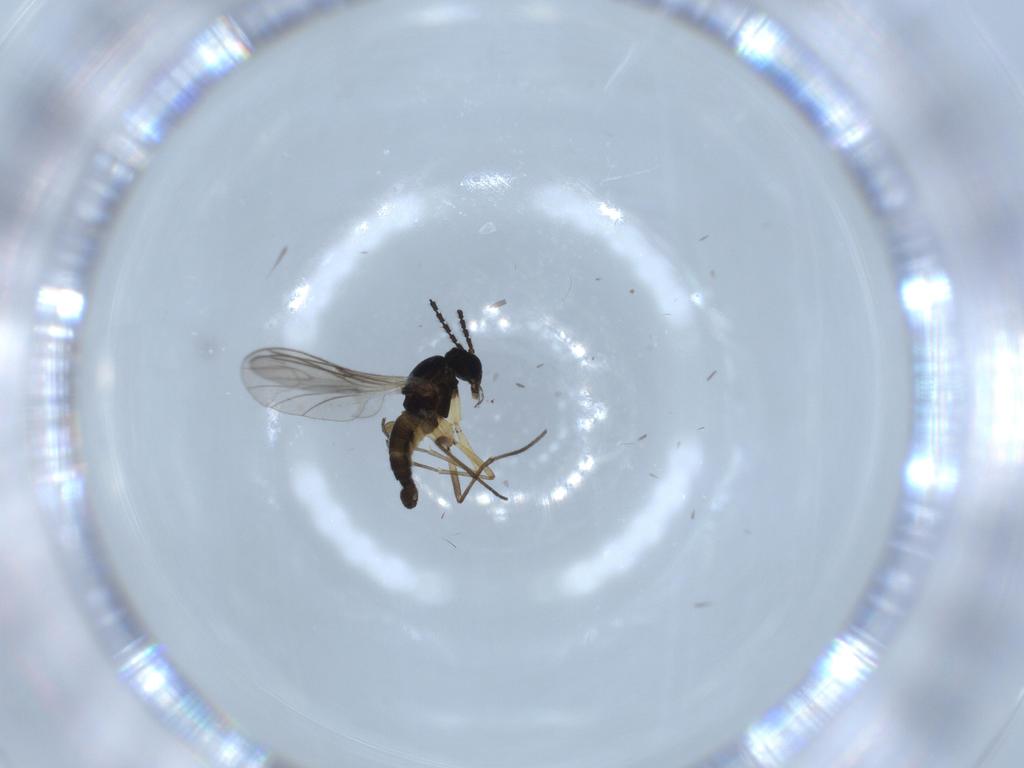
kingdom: Animalia
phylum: Arthropoda
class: Insecta
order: Diptera
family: Sciaridae
